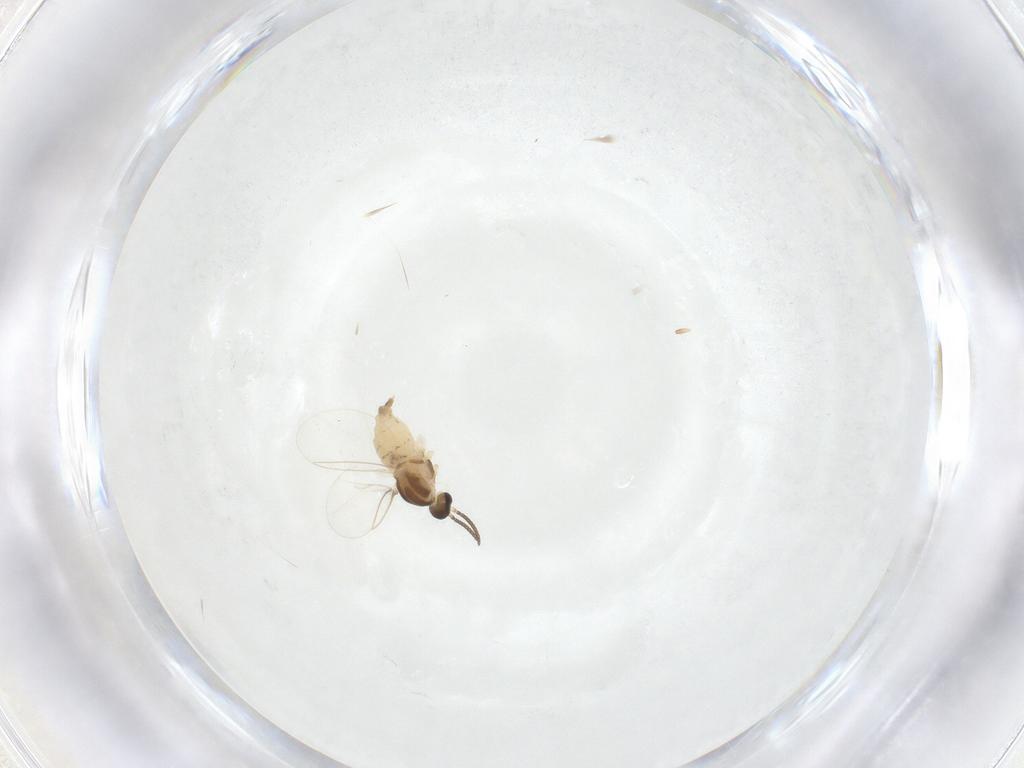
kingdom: Animalia
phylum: Arthropoda
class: Insecta
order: Diptera
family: Cecidomyiidae
